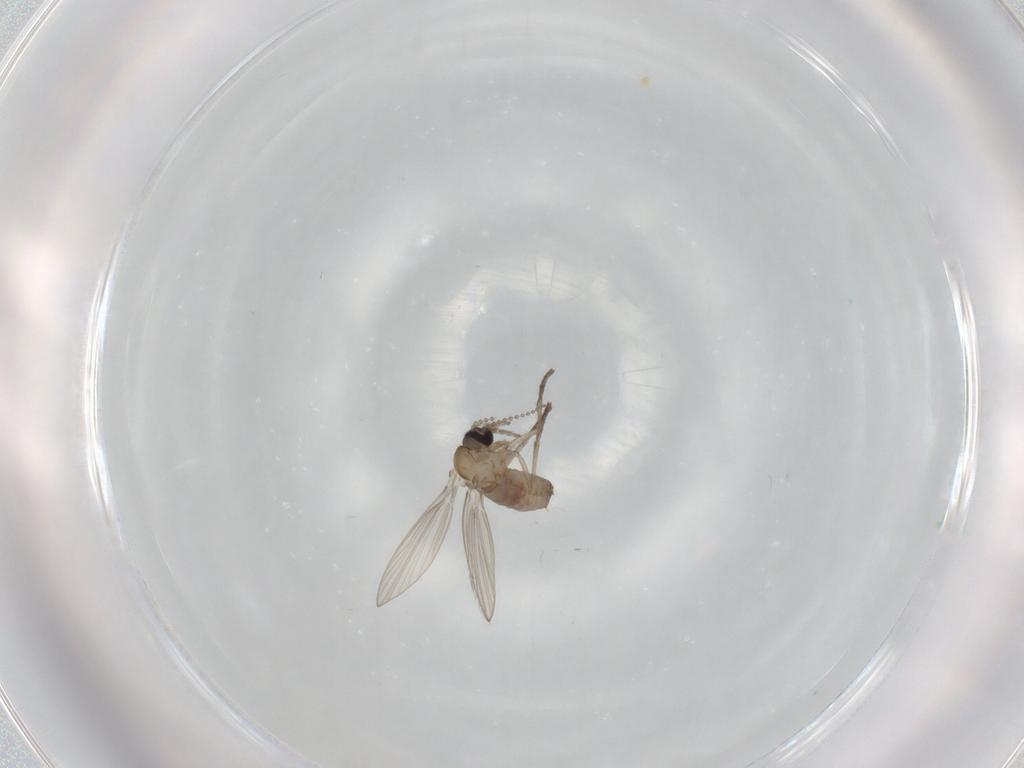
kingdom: Animalia
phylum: Arthropoda
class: Insecta
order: Diptera
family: Psychodidae
